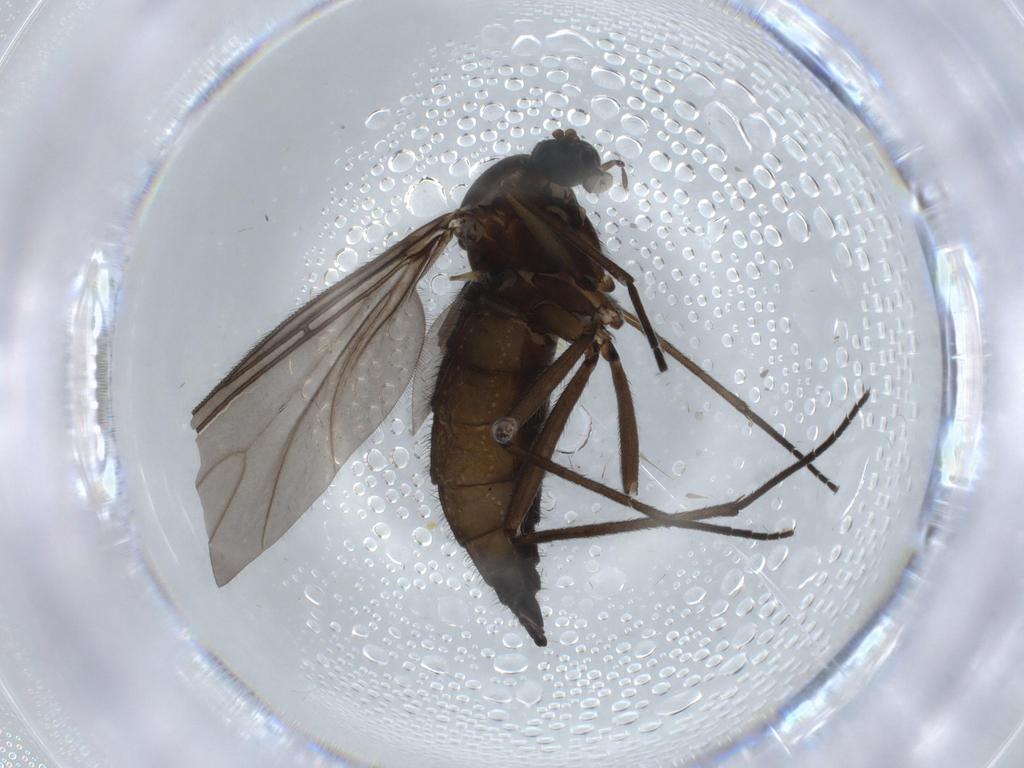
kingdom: Animalia
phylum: Arthropoda
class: Insecta
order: Diptera
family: Sciaridae
